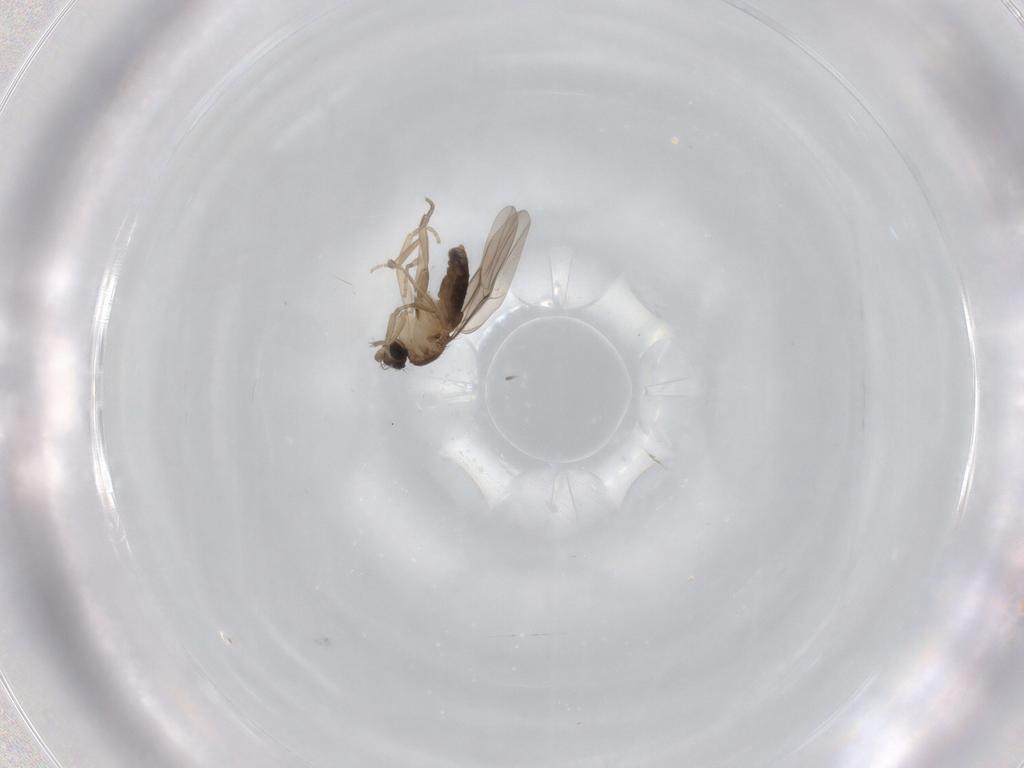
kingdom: Animalia
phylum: Arthropoda
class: Insecta
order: Diptera
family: Phoridae
